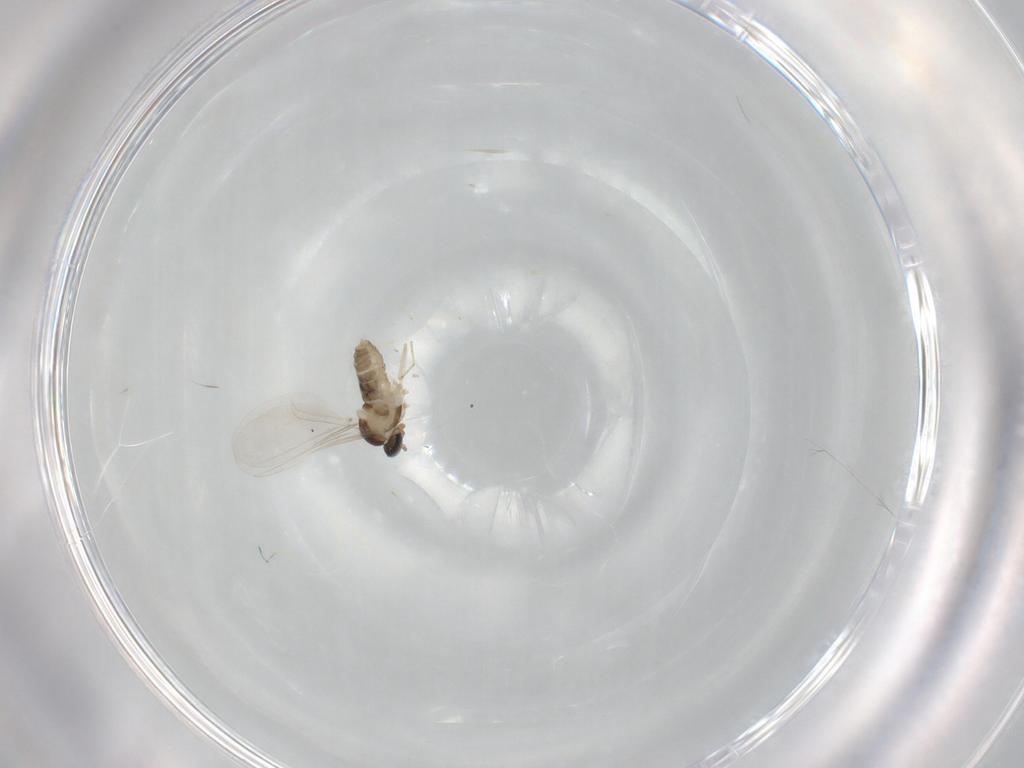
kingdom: Animalia
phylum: Arthropoda
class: Insecta
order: Diptera
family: Cecidomyiidae
